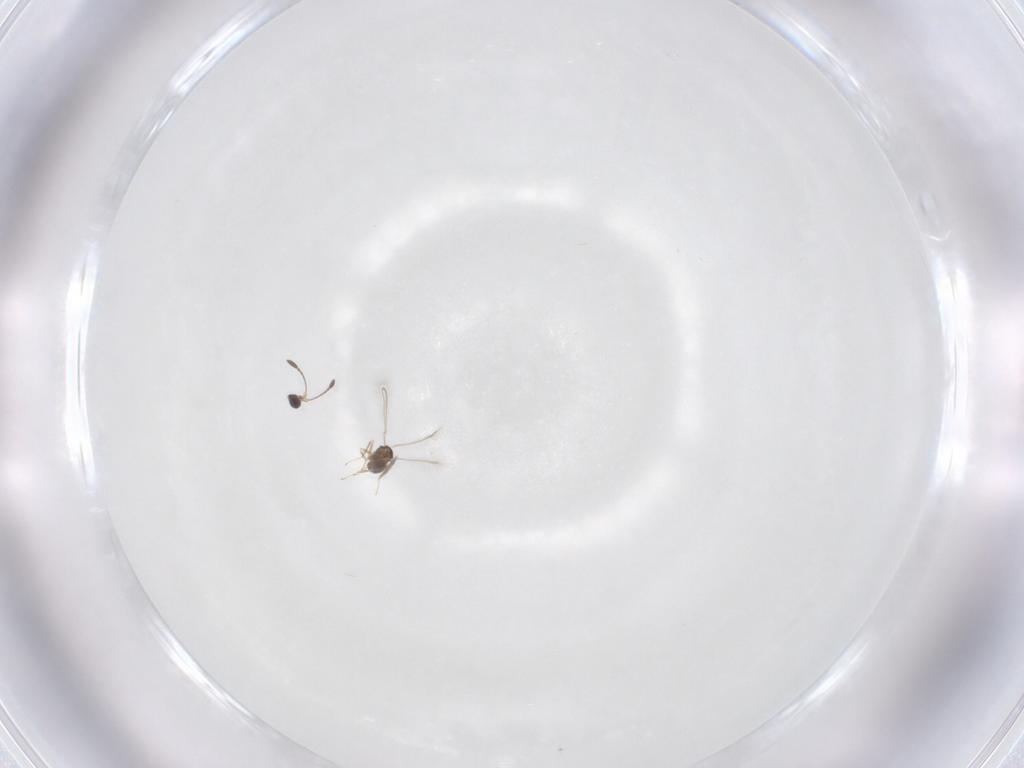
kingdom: Animalia
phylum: Arthropoda
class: Insecta
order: Hymenoptera
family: Mymaridae
